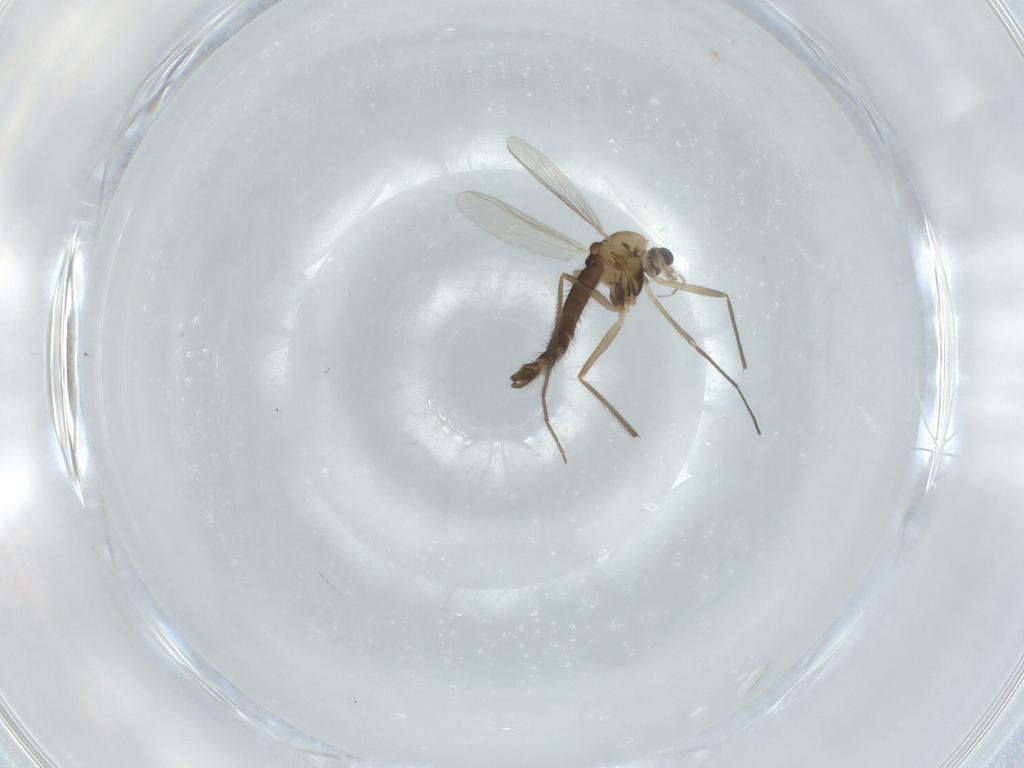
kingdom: Animalia
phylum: Arthropoda
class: Insecta
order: Diptera
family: Chironomidae
